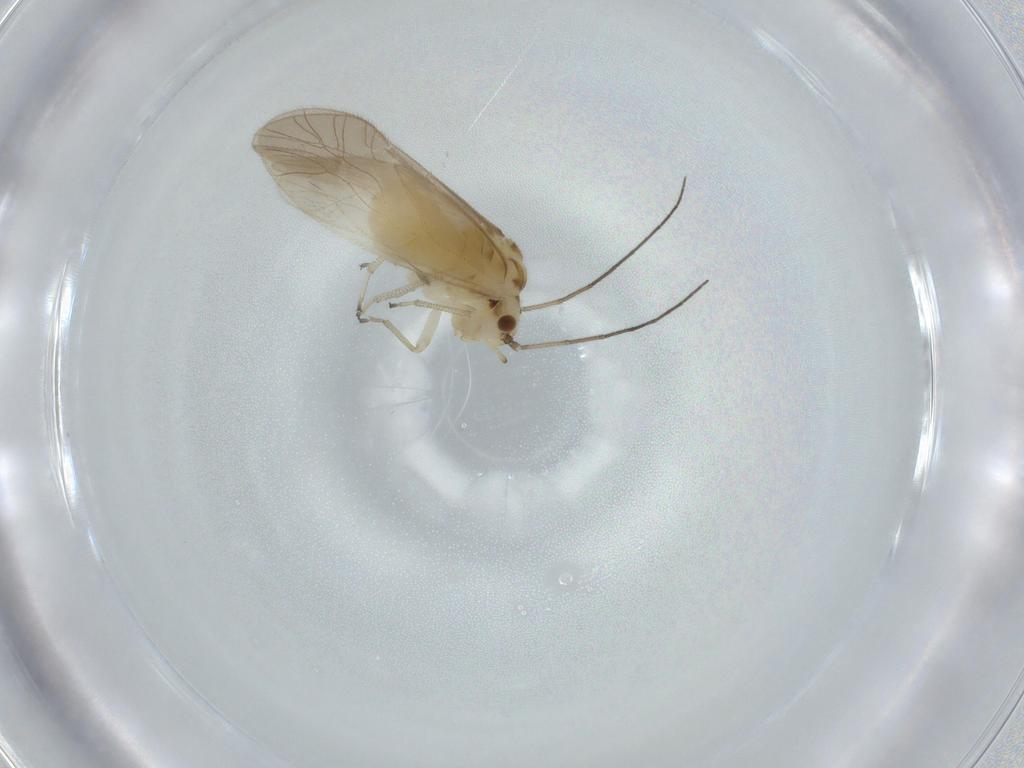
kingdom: Animalia
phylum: Arthropoda
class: Insecta
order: Psocodea
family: Caeciliusidae
